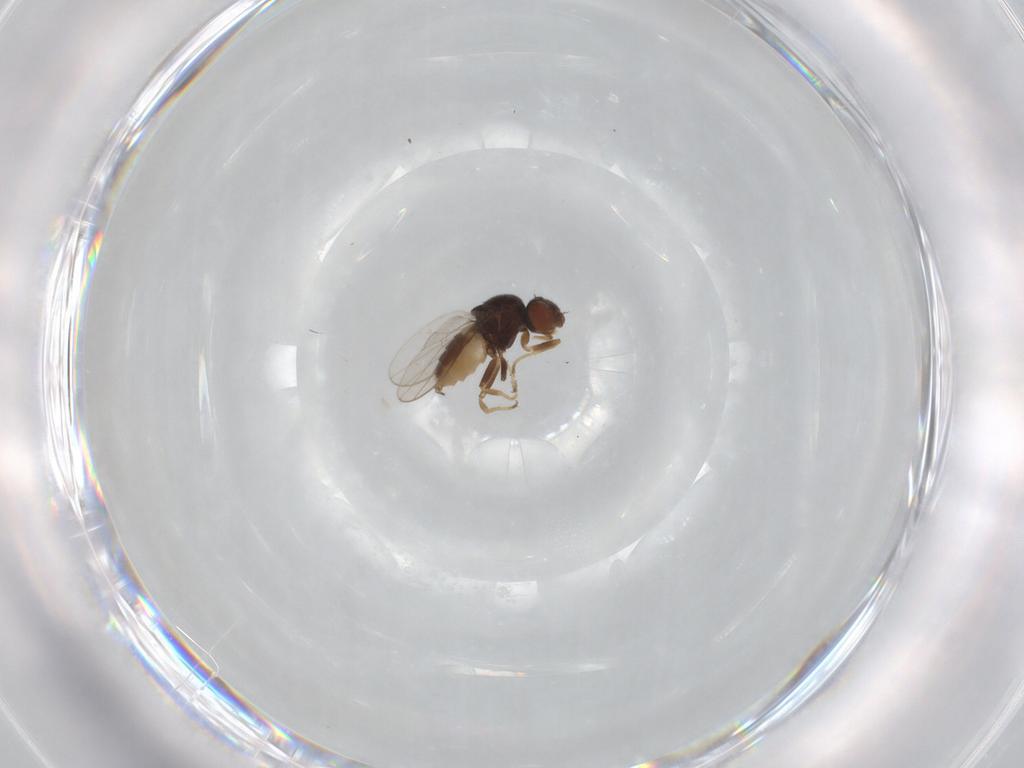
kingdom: Animalia
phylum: Arthropoda
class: Insecta
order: Diptera
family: Chloropidae
